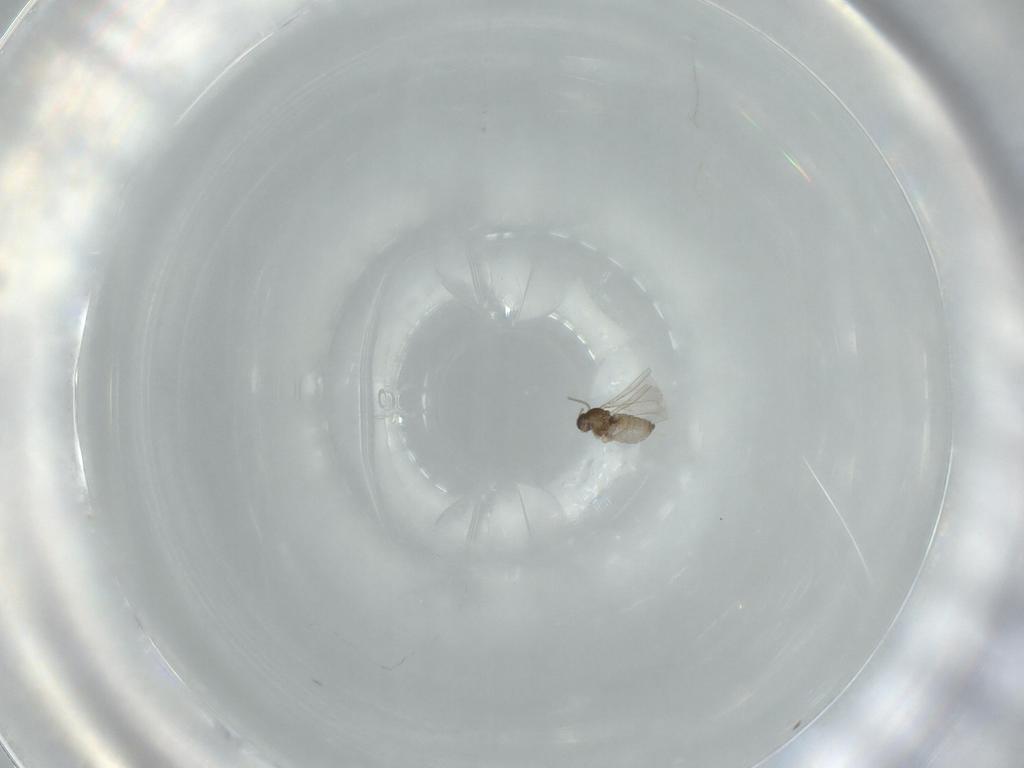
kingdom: Animalia
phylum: Arthropoda
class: Insecta
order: Diptera
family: Cecidomyiidae
